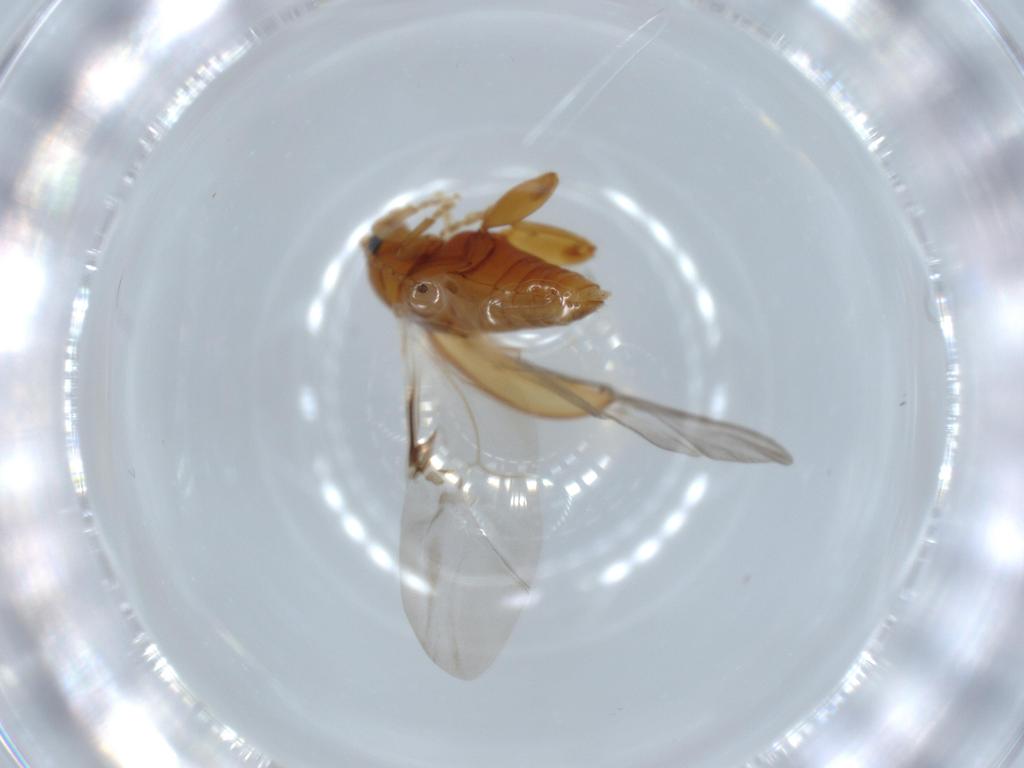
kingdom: Animalia
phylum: Arthropoda
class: Insecta
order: Coleoptera
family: Chrysomelidae
